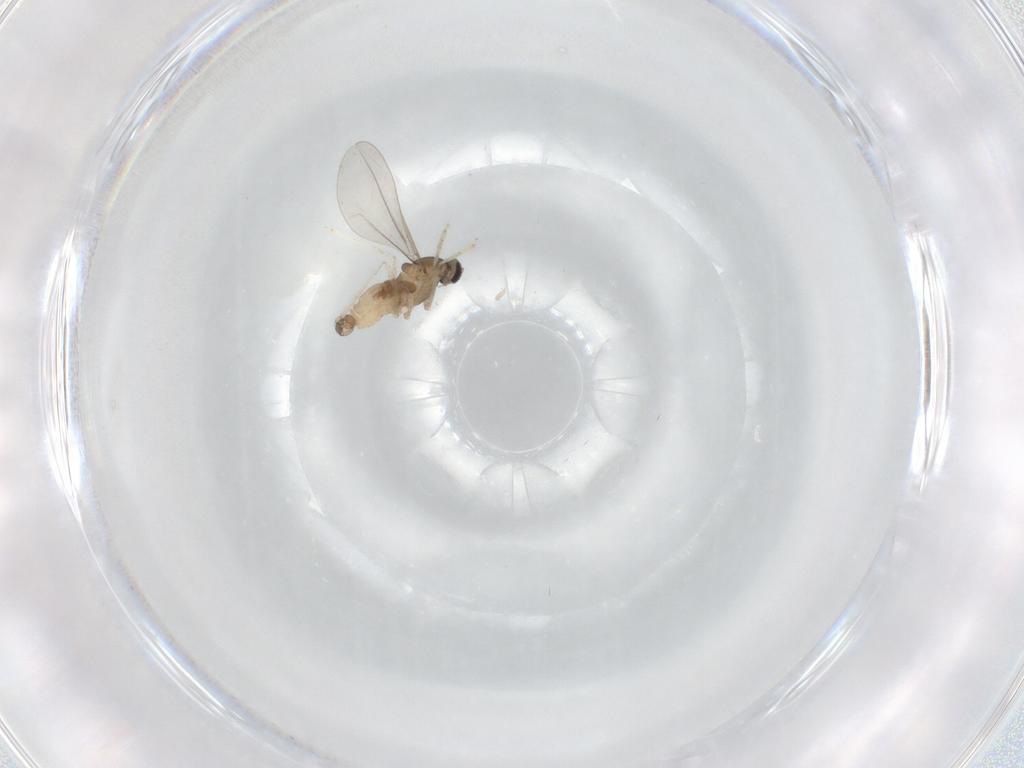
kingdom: Animalia
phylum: Arthropoda
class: Insecta
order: Diptera
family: Cecidomyiidae
